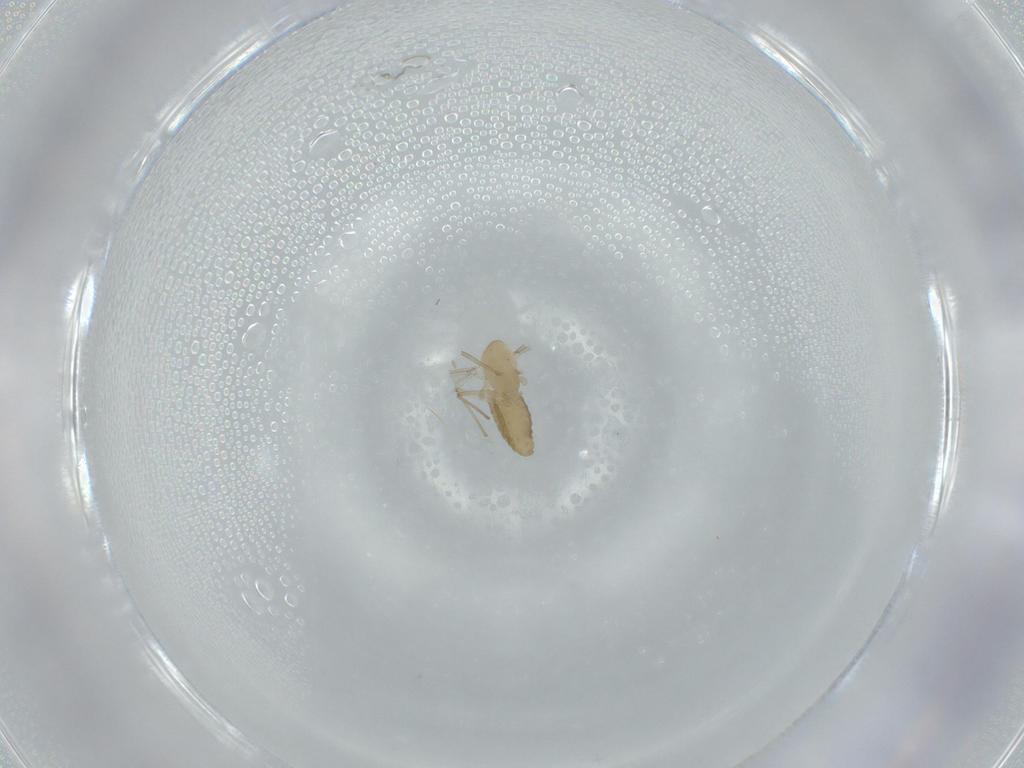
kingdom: Animalia
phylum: Arthropoda
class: Insecta
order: Diptera
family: Cecidomyiidae
